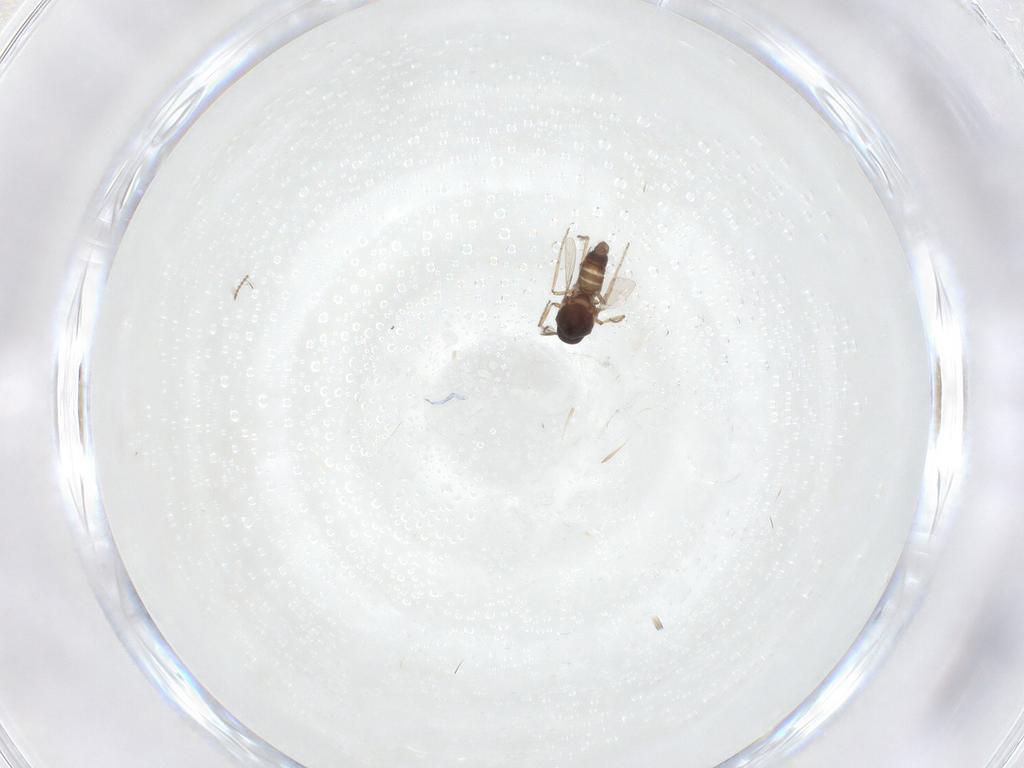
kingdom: Animalia
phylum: Arthropoda
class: Insecta
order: Diptera
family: Ceratopogonidae
